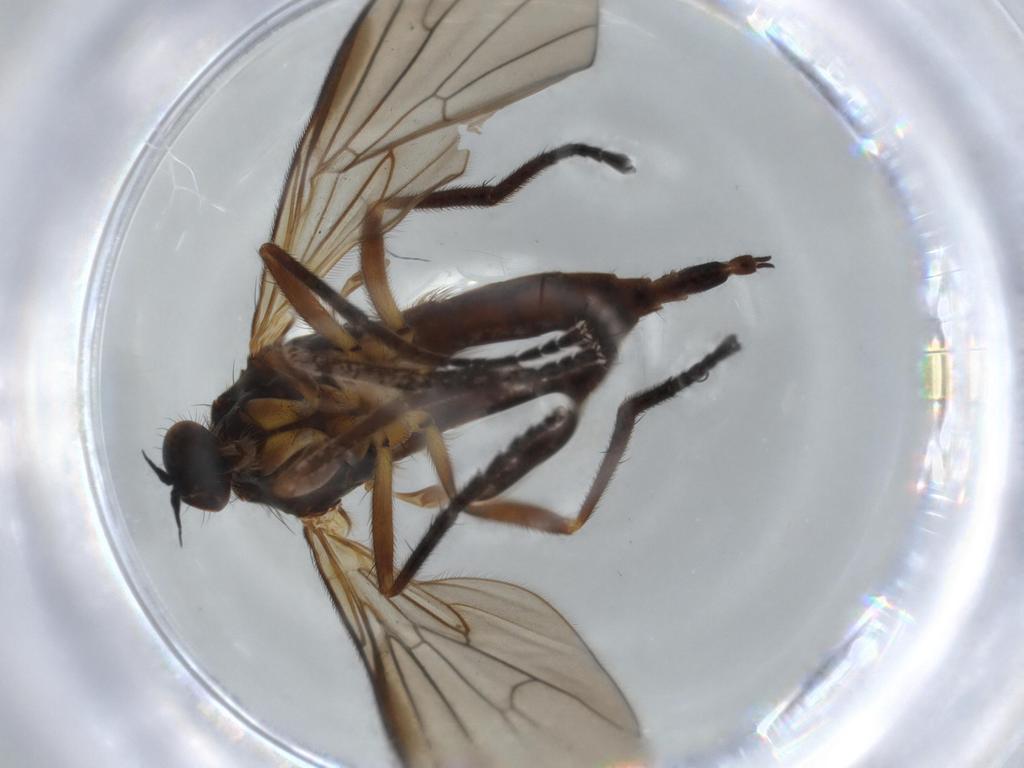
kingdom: Animalia
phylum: Arthropoda
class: Insecta
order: Diptera
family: Empididae
